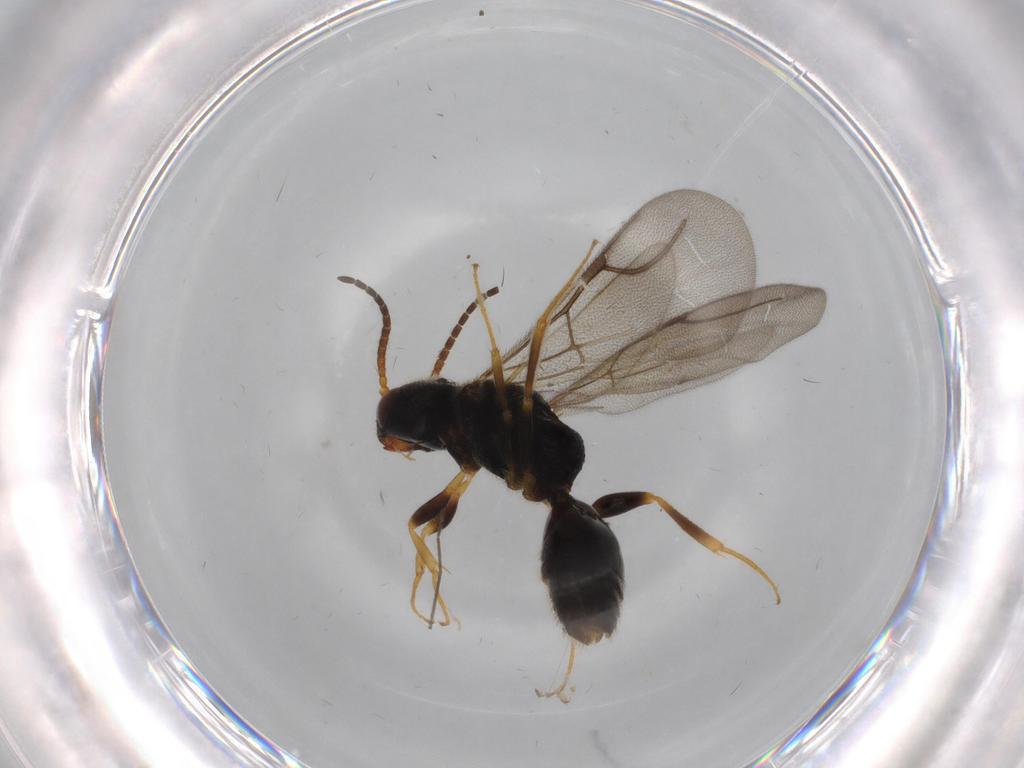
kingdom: Animalia
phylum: Arthropoda
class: Insecta
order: Hymenoptera
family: Bethylidae
